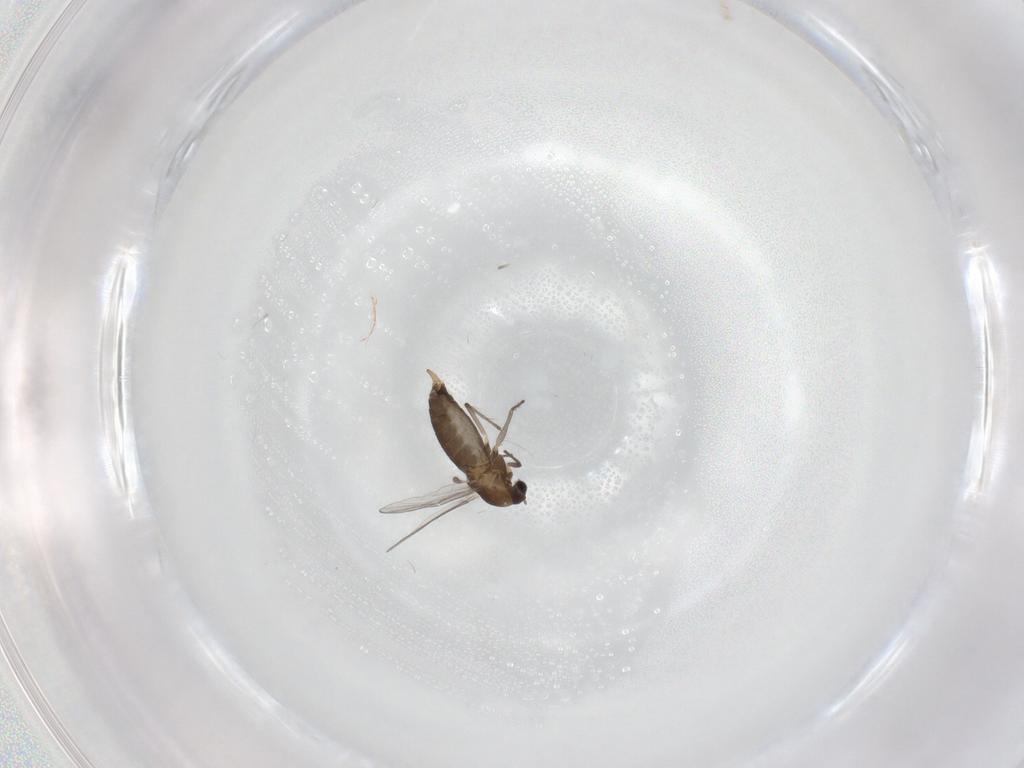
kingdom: Animalia
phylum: Arthropoda
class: Insecta
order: Diptera
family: Chironomidae
